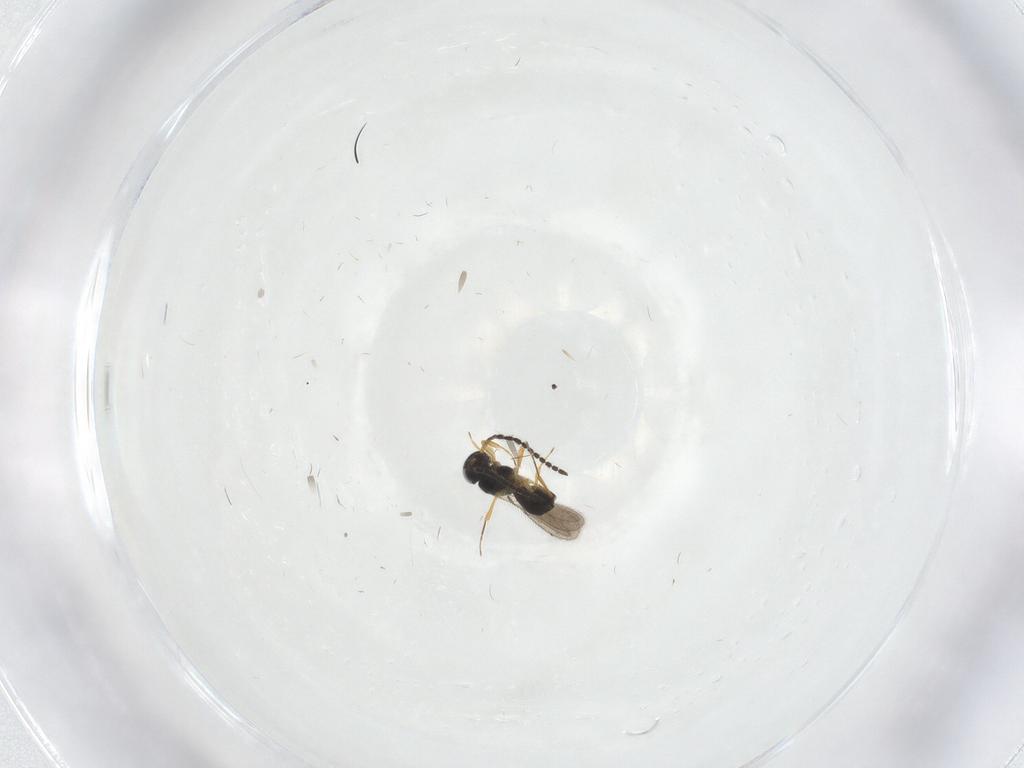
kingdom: Animalia
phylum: Arthropoda
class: Insecta
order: Hymenoptera
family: Scelionidae
